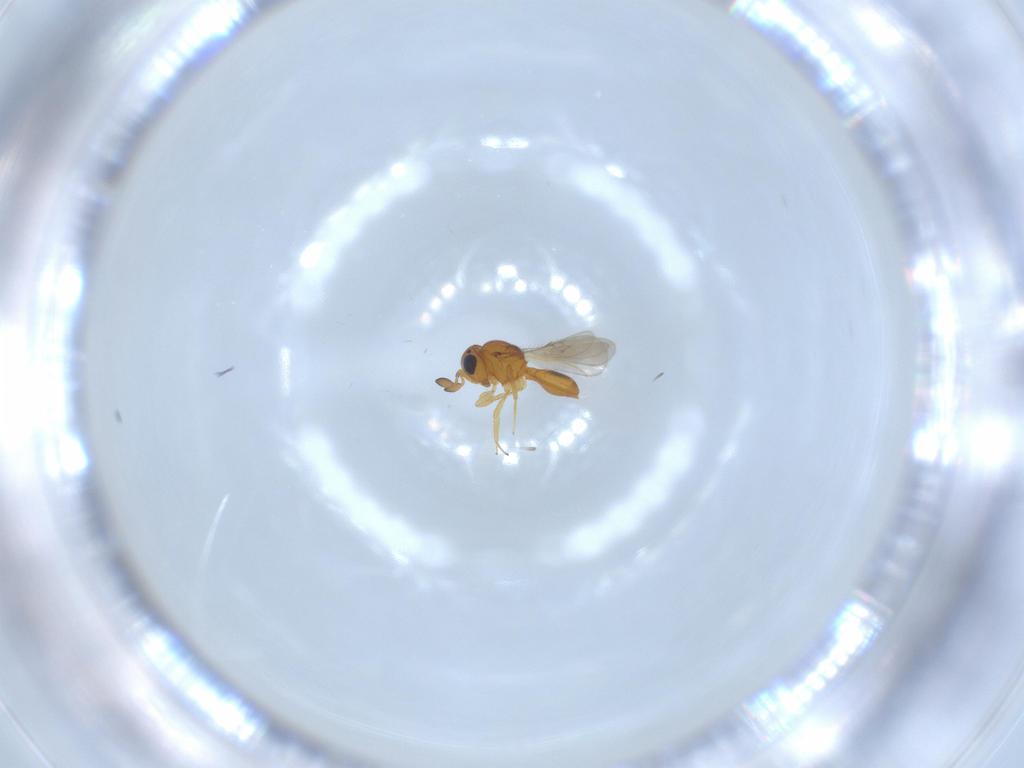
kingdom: Animalia
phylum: Arthropoda
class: Insecta
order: Hymenoptera
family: Scelionidae
